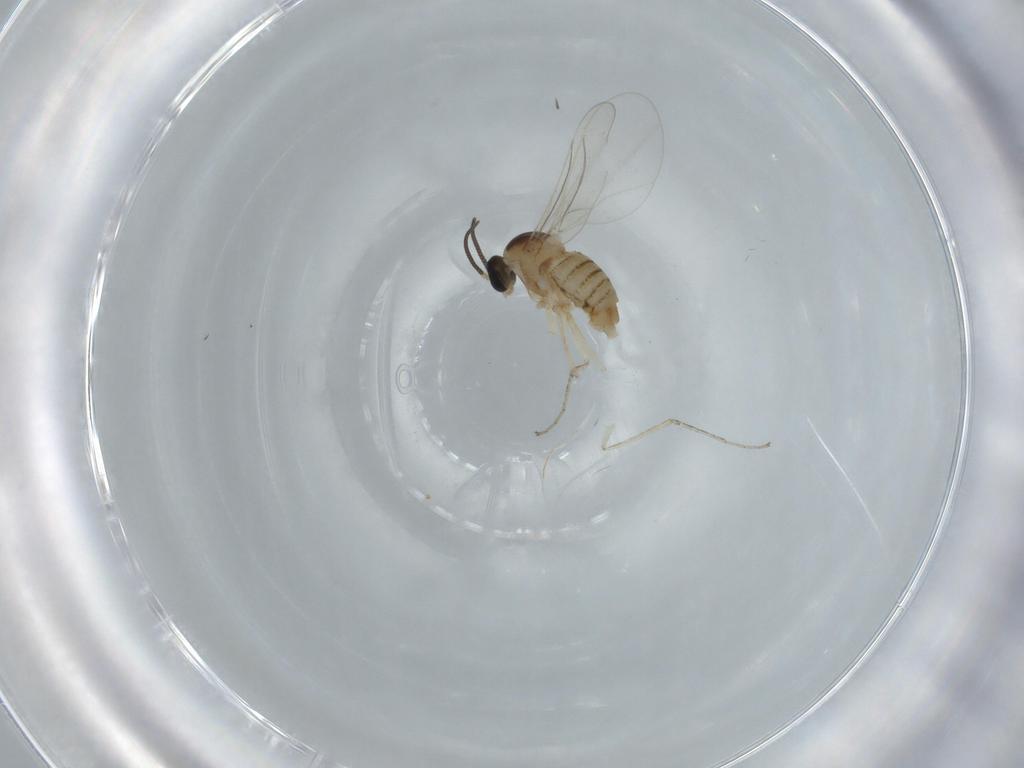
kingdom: Animalia
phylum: Arthropoda
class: Insecta
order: Diptera
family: Cecidomyiidae
